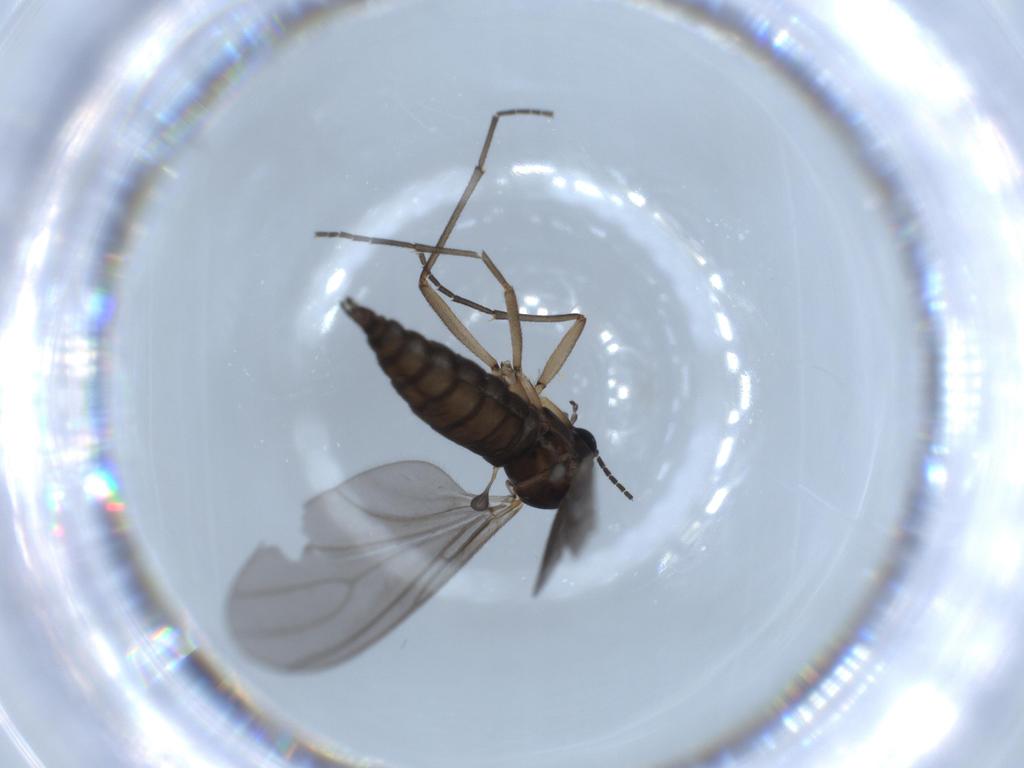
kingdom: Animalia
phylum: Arthropoda
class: Insecta
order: Diptera
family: Sciaridae
